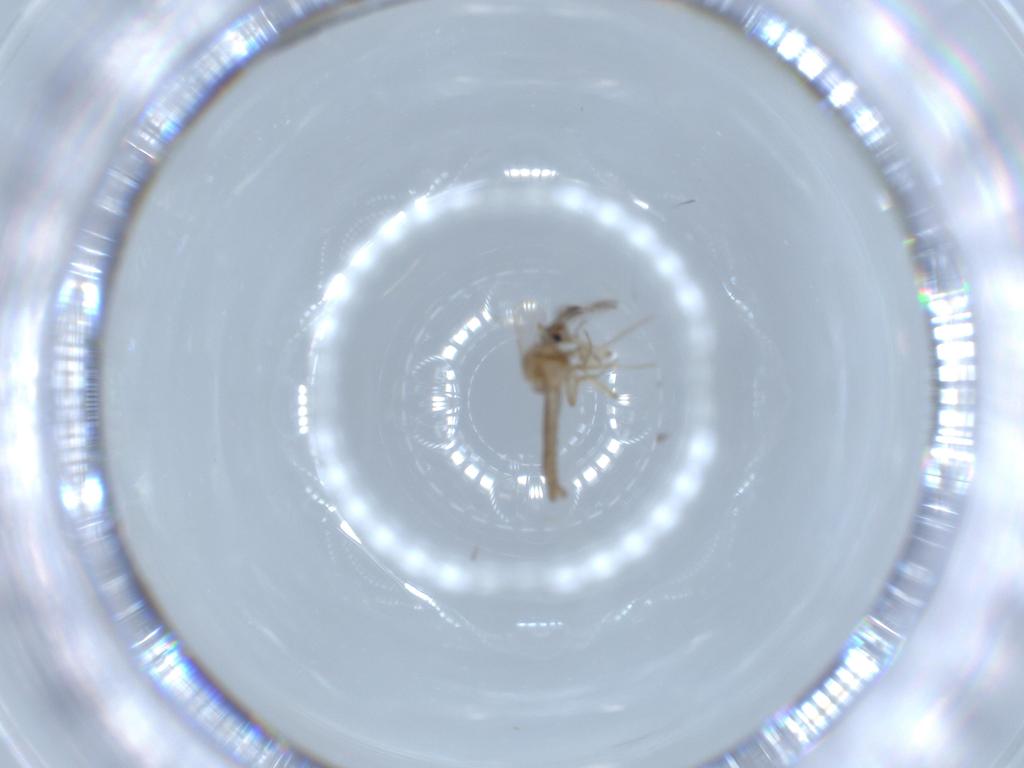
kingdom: Animalia
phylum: Arthropoda
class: Insecta
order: Diptera
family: Ceratopogonidae
